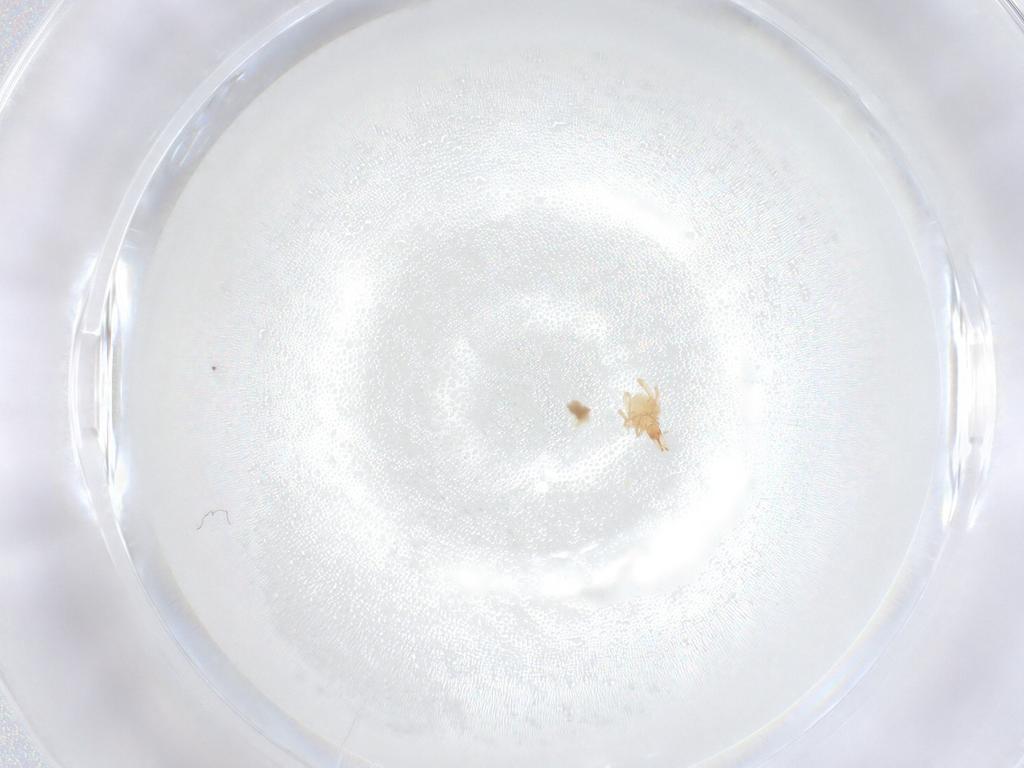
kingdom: Animalia
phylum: Arthropoda
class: Arachnida
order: Trombidiformes
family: Cunaxidae
